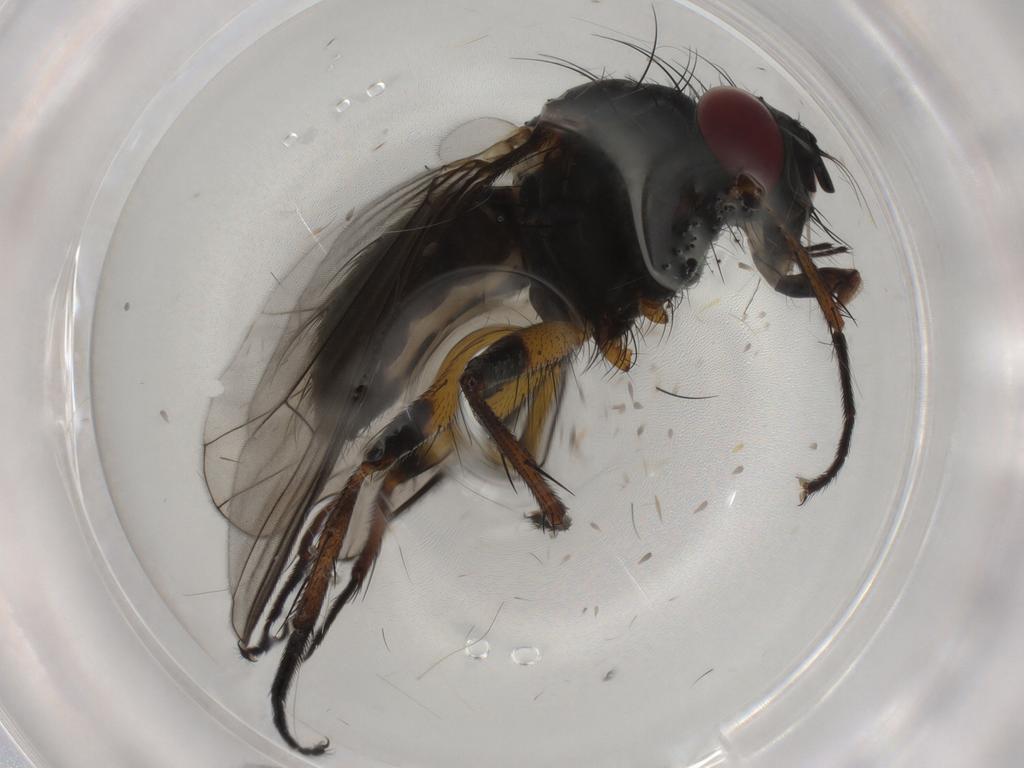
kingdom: Animalia
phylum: Arthropoda
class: Insecta
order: Diptera
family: Muscidae
